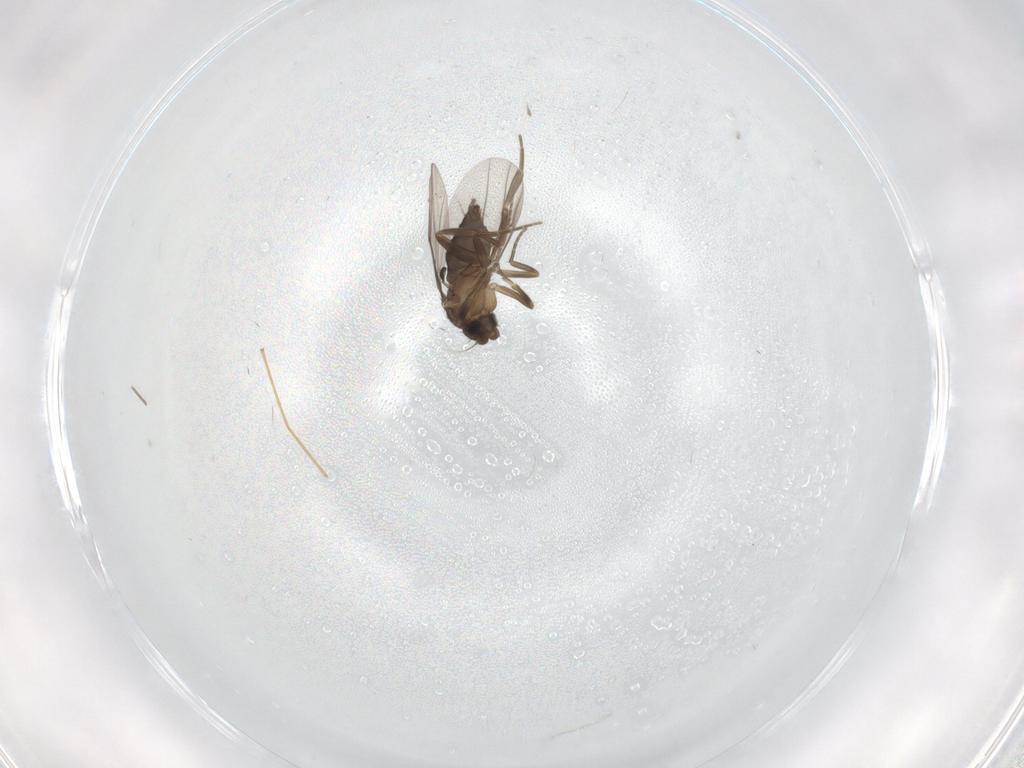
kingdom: Animalia
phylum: Arthropoda
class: Insecta
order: Diptera
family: Phoridae
